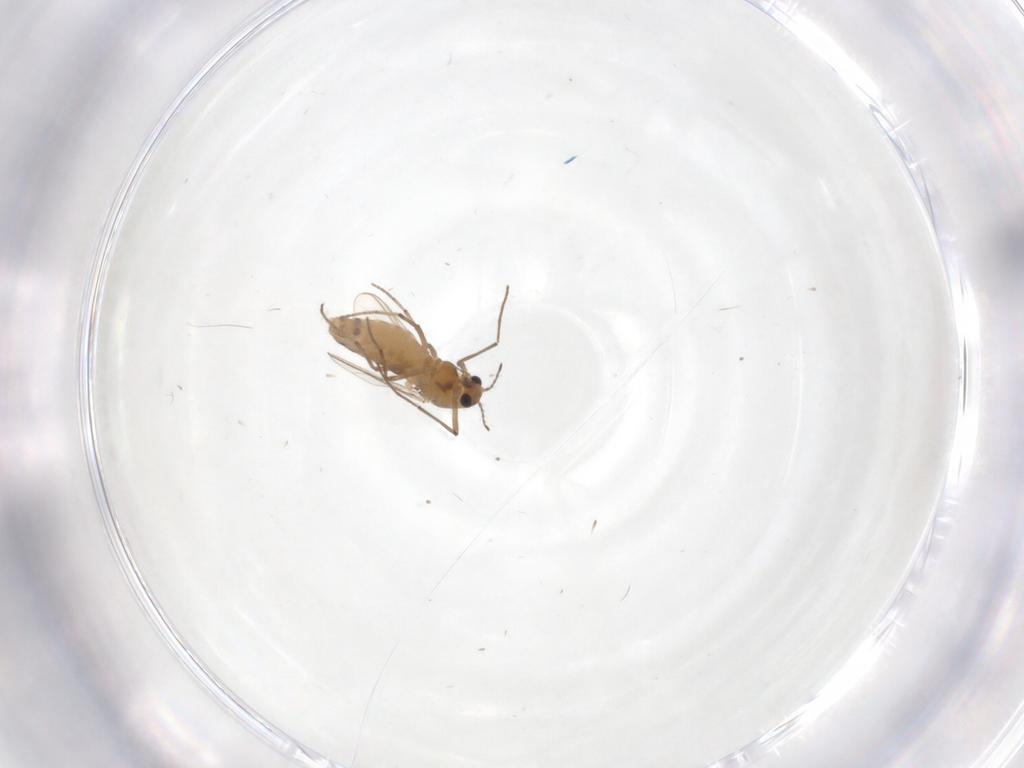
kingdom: Animalia
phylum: Arthropoda
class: Insecta
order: Diptera
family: Chironomidae
